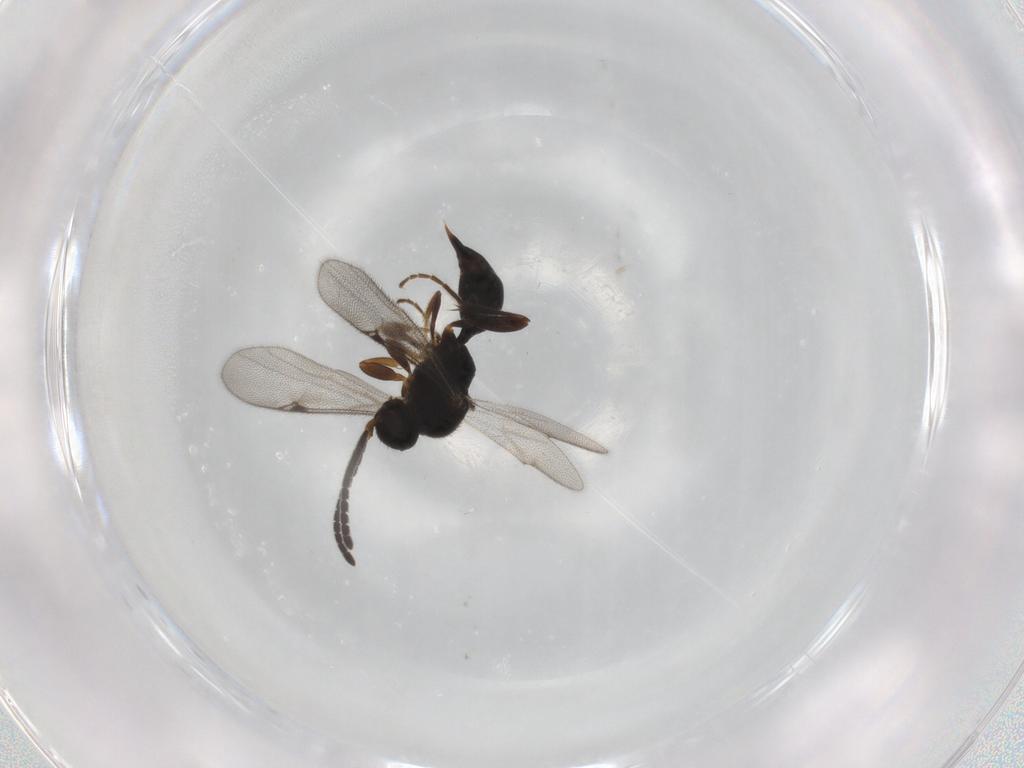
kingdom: Animalia
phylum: Arthropoda
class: Insecta
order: Hymenoptera
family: Proctotrupidae
